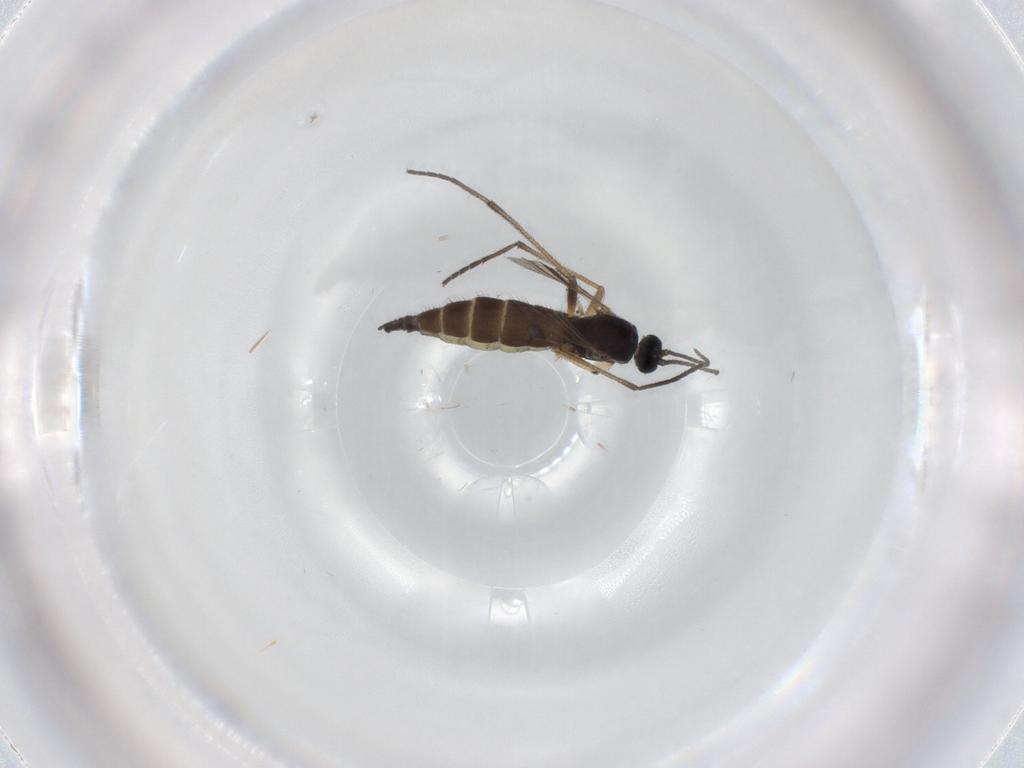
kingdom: Animalia
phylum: Arthropoda
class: Insecta
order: Diptera
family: Sciaridae
